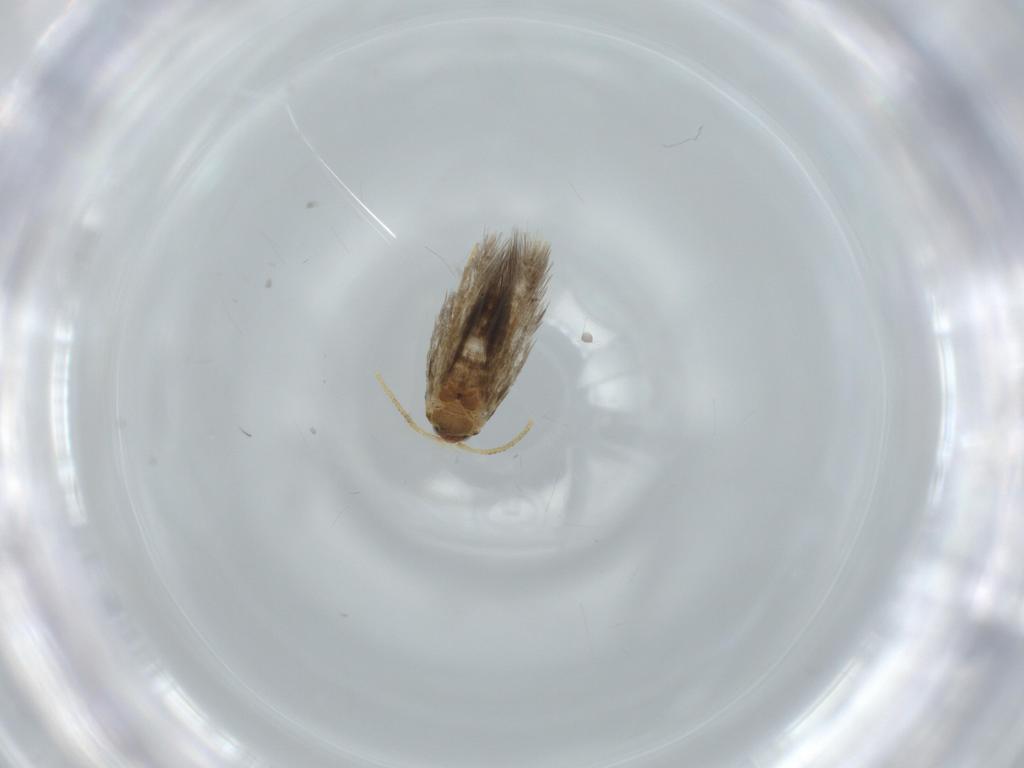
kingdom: Animalia
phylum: Arthropoda
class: Insecta
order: Lepidoptera
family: Copromorphidae
